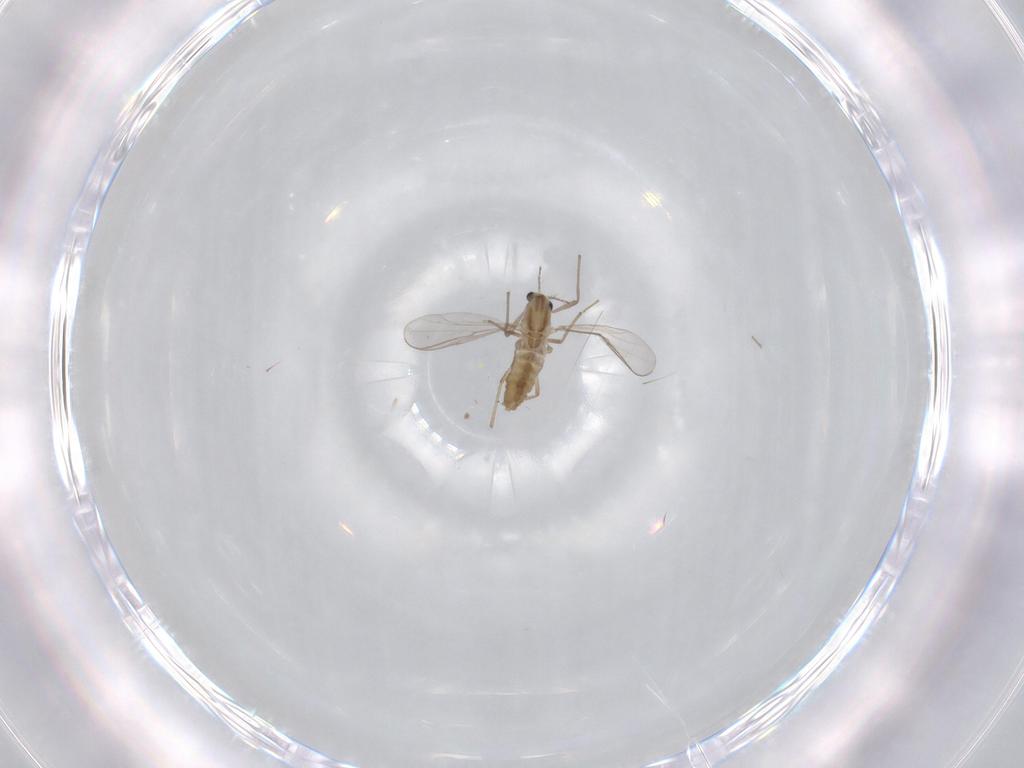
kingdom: Animalia
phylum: Arthropoda
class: Insecta
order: Diptera
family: Chironomidae
